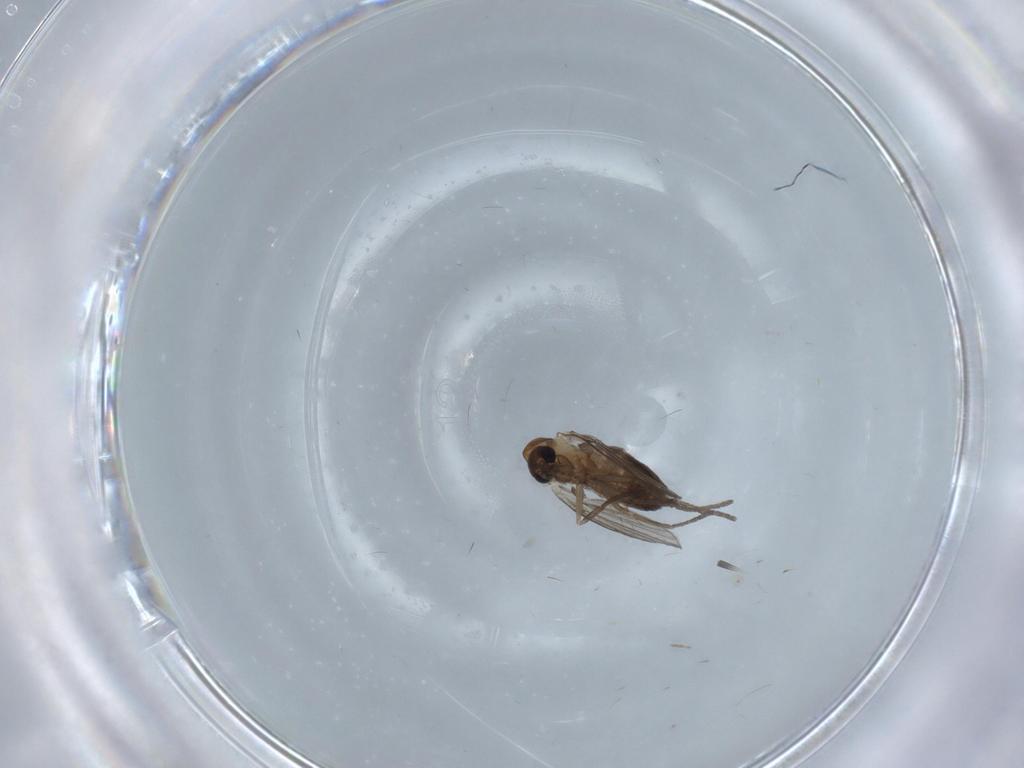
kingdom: Animalia
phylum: Arthropoda
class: Insecta
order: Diptera
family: Psychodidae
